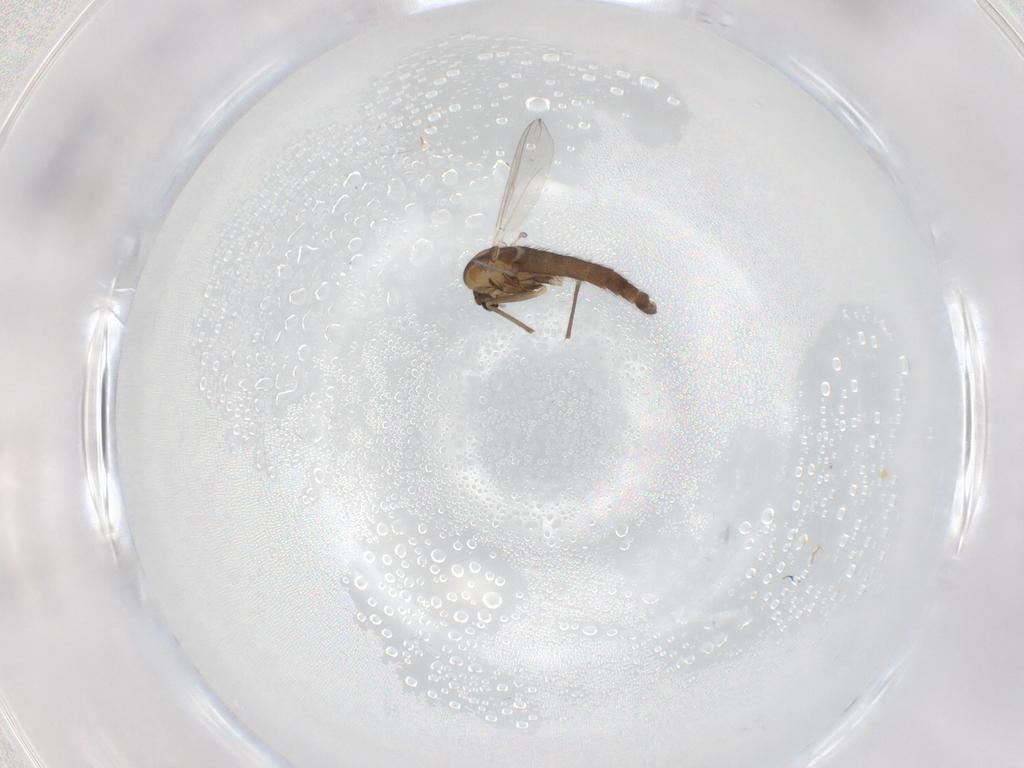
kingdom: Animalia
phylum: Arthropoda
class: Insecta
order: Diptera
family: Chironomidae
